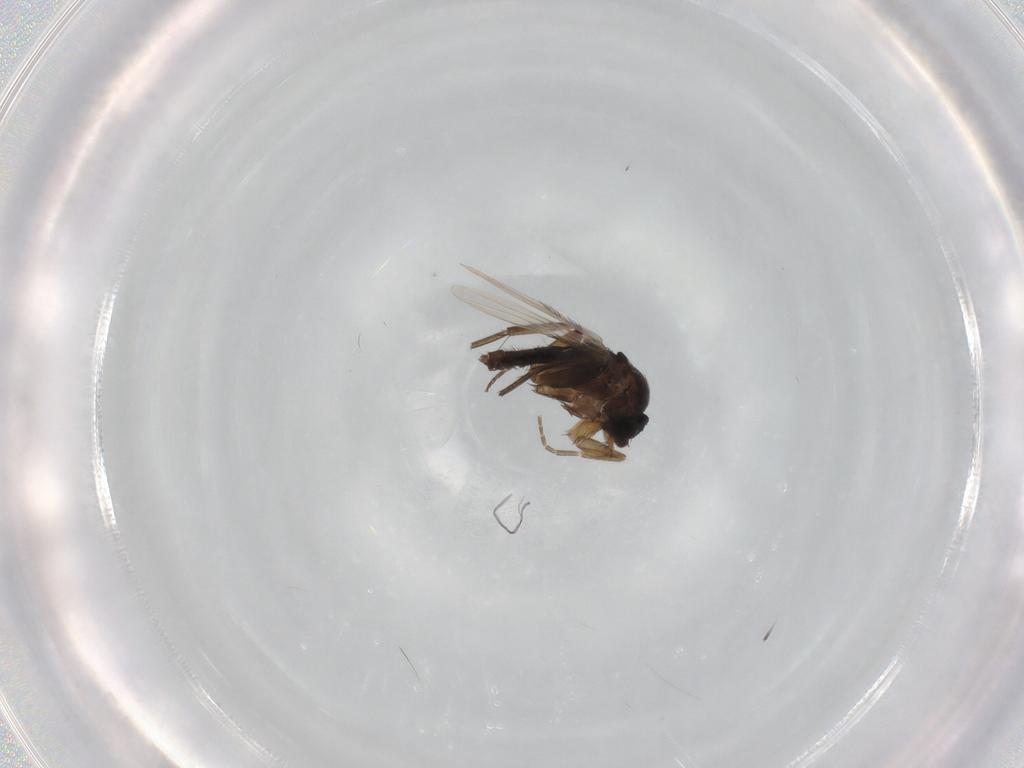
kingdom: Animalia
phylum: Arthropoda
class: Insecta
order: Diptera
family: Phoridae
